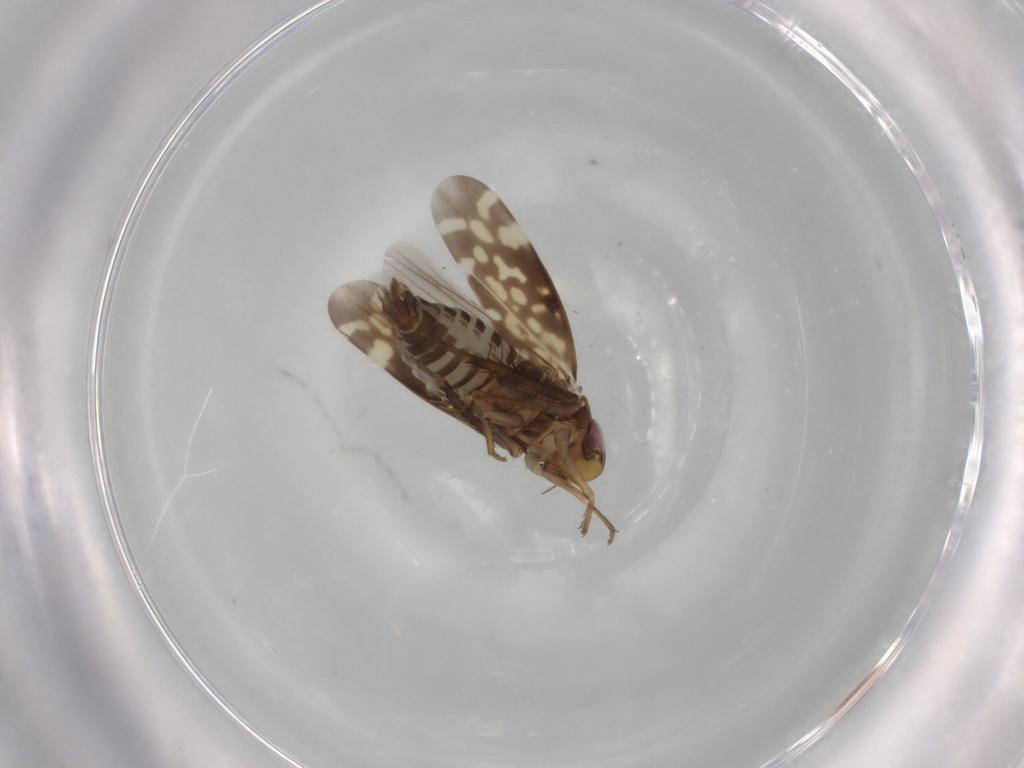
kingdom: Animalia
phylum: Arthropoda
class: Insecta
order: Hemiptera
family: Cicadellidae
